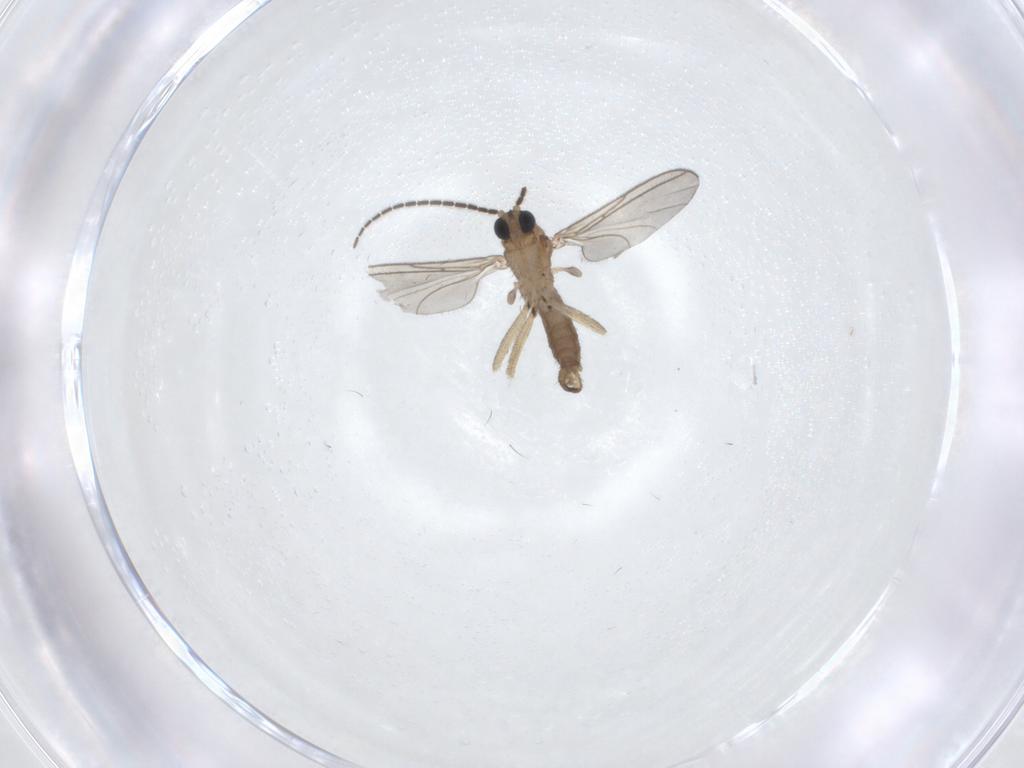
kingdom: Animalia
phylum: Arthropoda
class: Insecta
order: Diptera
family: Sciaridae
